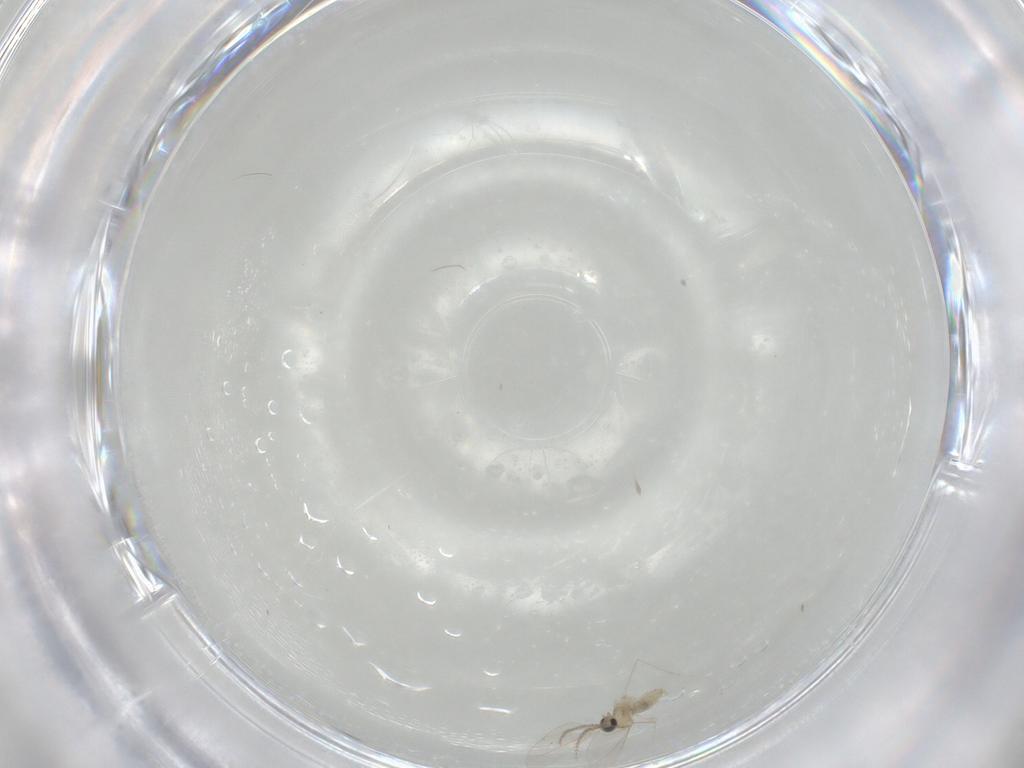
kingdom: Animalia
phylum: Arthropoda
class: Insecta
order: Diptera
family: Cecidomyiidae
